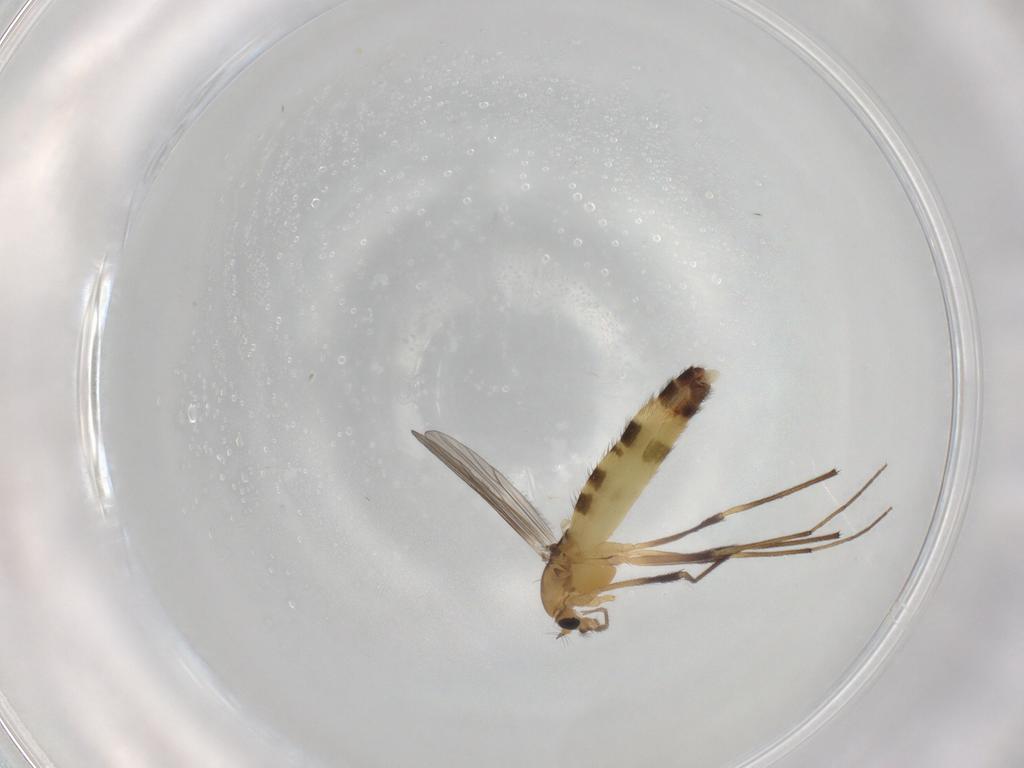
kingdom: Animalia
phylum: Arthropoda
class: Insecta
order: Diptera
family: Chironomidae
